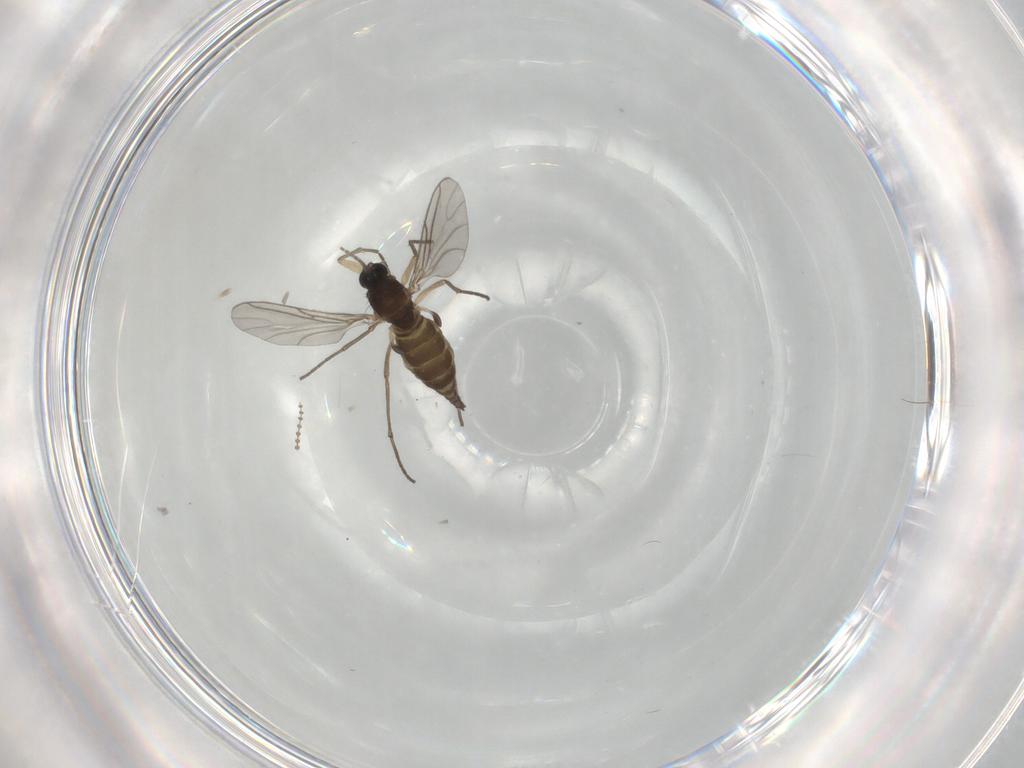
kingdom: Animalia
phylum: Arthropoda
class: Insecta
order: Diptera
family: Sciaridae
